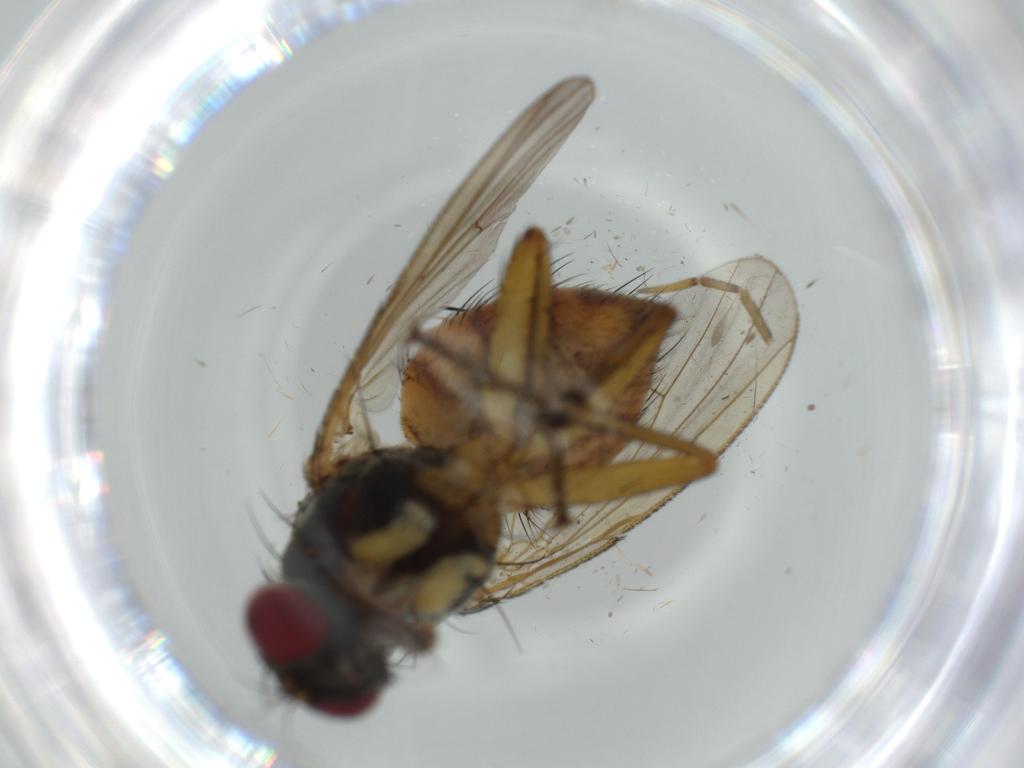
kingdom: Animalia
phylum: Arthropoda
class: Insecta
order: Diptera
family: Muscidae
